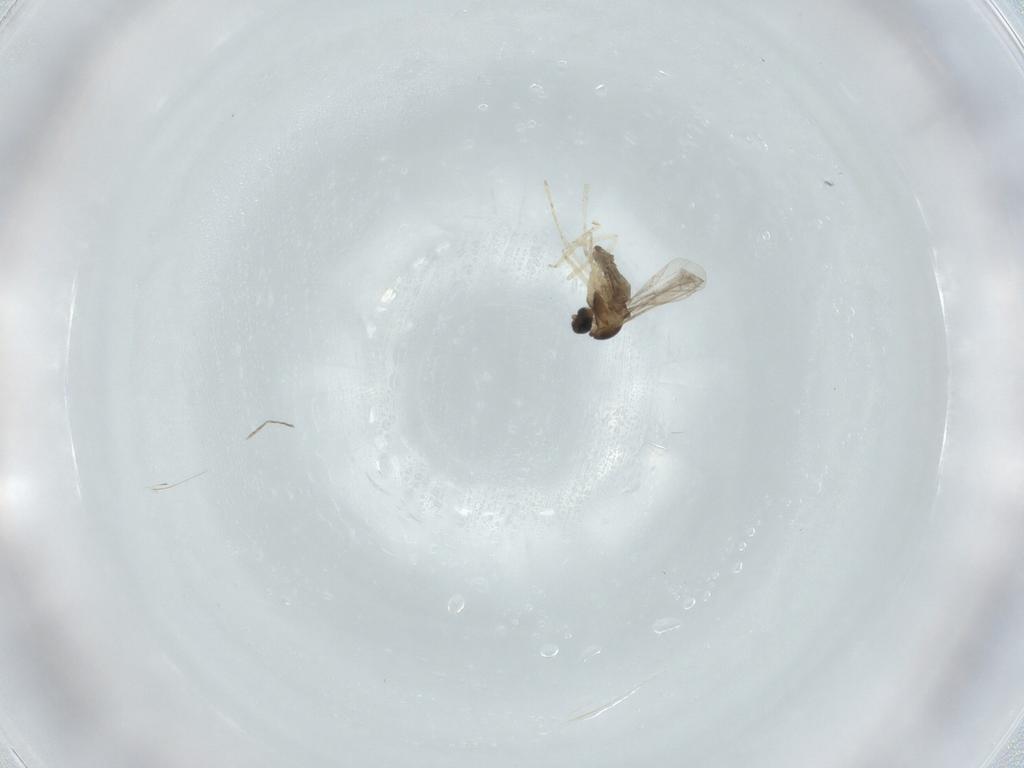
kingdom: Animalia
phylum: Arthropoda
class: Insecta
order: Diptera
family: Cecidomyiidae
